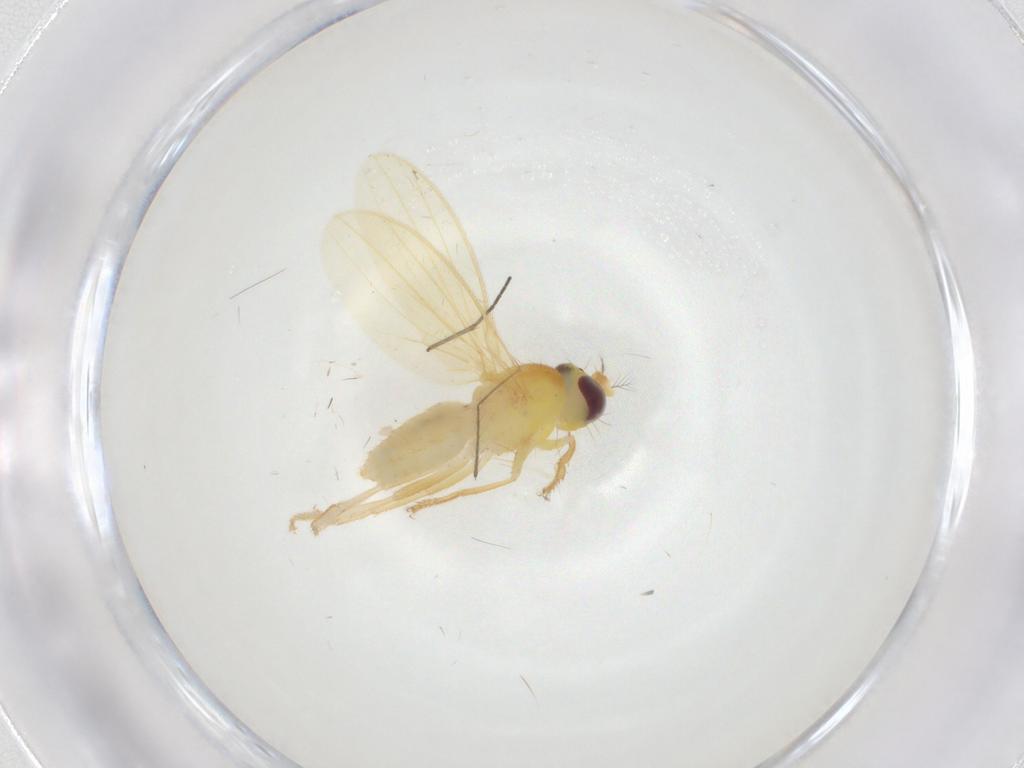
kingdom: Animalia
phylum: Arthropoda
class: Insecta
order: Diptera
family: Periscelididae
